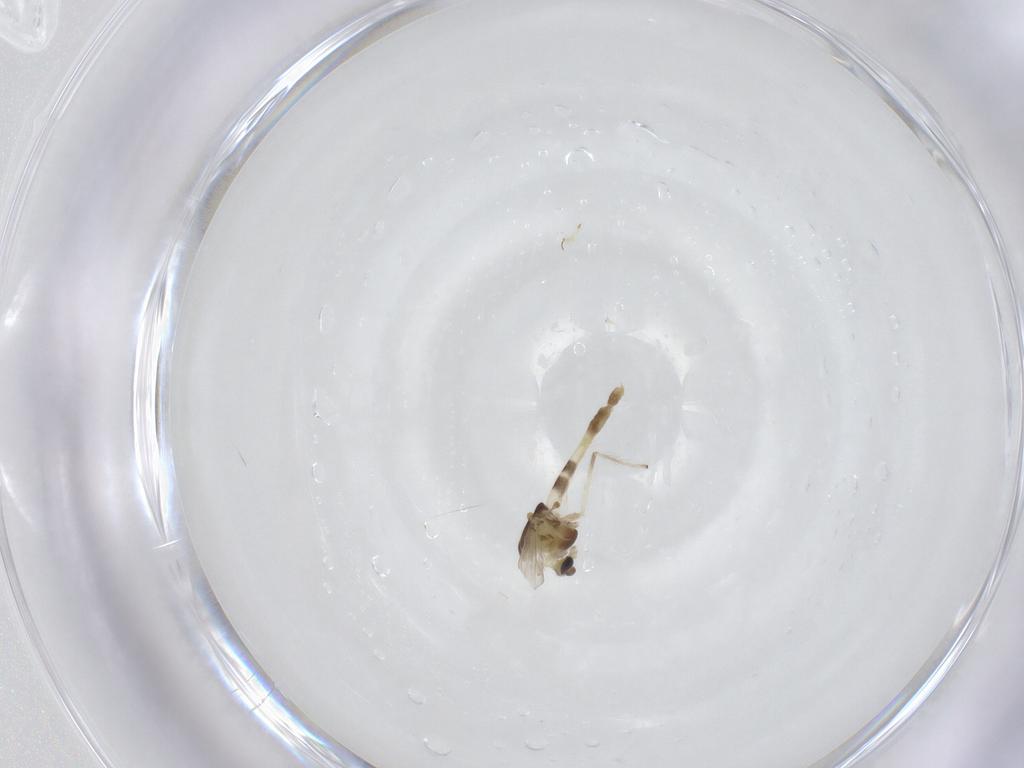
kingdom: Animalia
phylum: Arthropoda
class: Insecta
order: Diptera
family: Chironomidae
